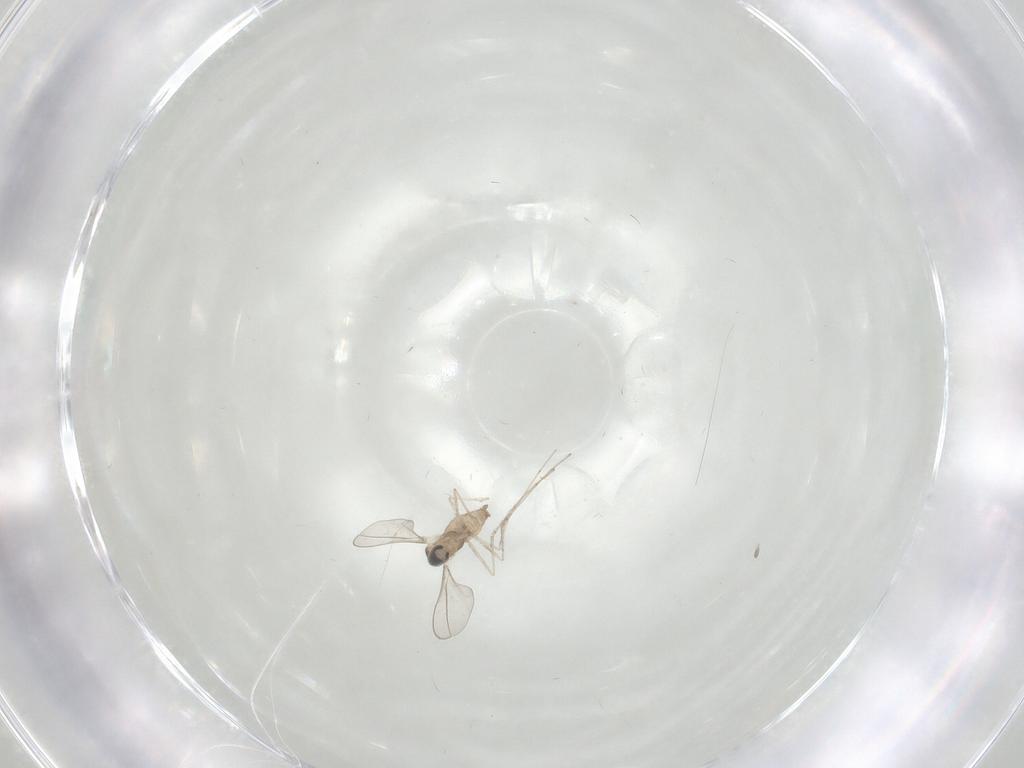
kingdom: Animalia
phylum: Arthropoda
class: Insecta
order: Diptera
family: Cecidomyiidae
